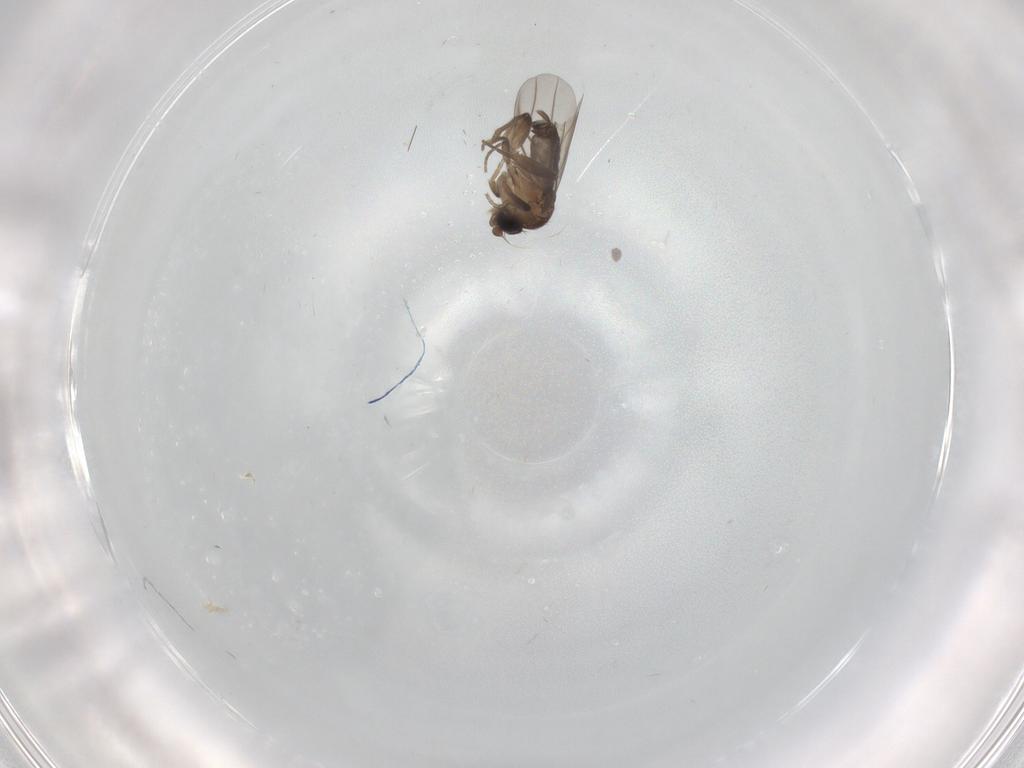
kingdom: Animalia
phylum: Arthropoda
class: Insecta
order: Diptera
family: Phoridae
